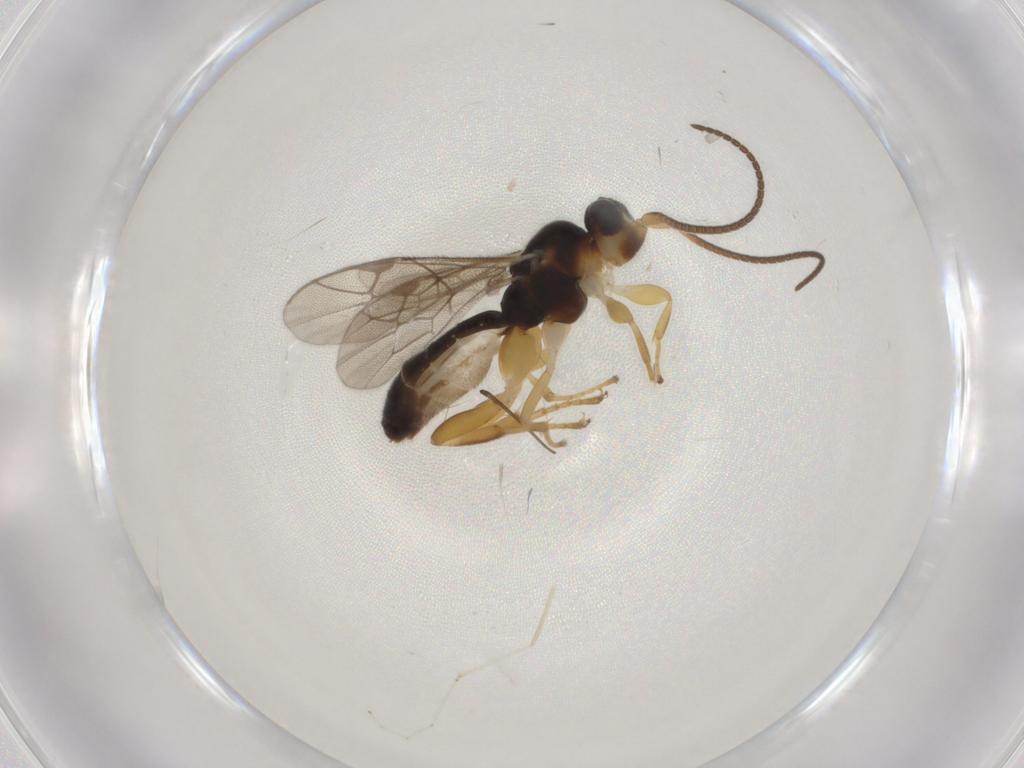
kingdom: Animalia
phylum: Arthropoda
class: Insecta
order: Hymenoptera
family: Ichneumonidae
